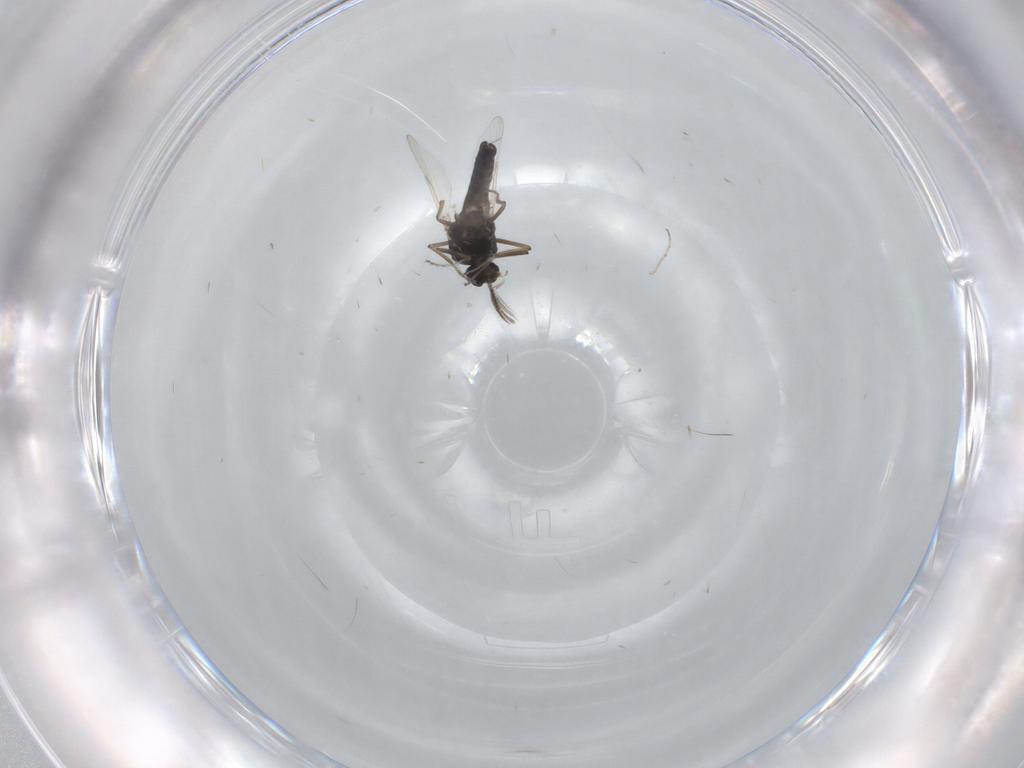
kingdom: Animalia
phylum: Arthropoda
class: Insecta
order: Diptera
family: Ceratopogonidae
